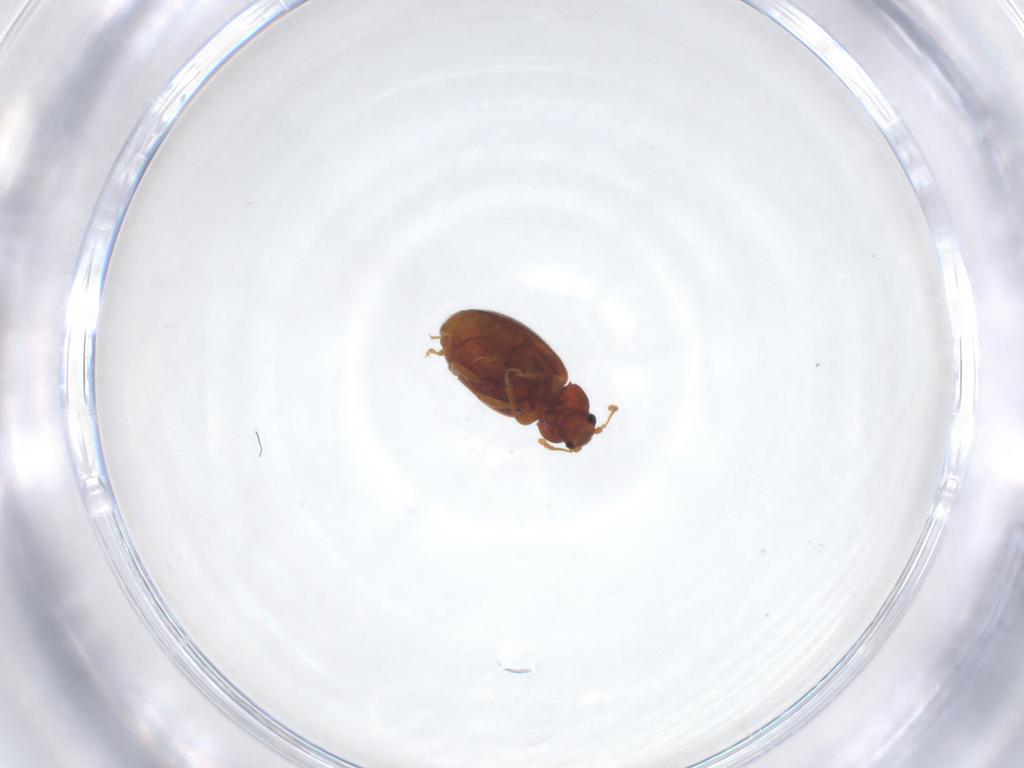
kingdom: Animalia
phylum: Arthropoda
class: Insecta
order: Coleoptera
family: Latridiidae
